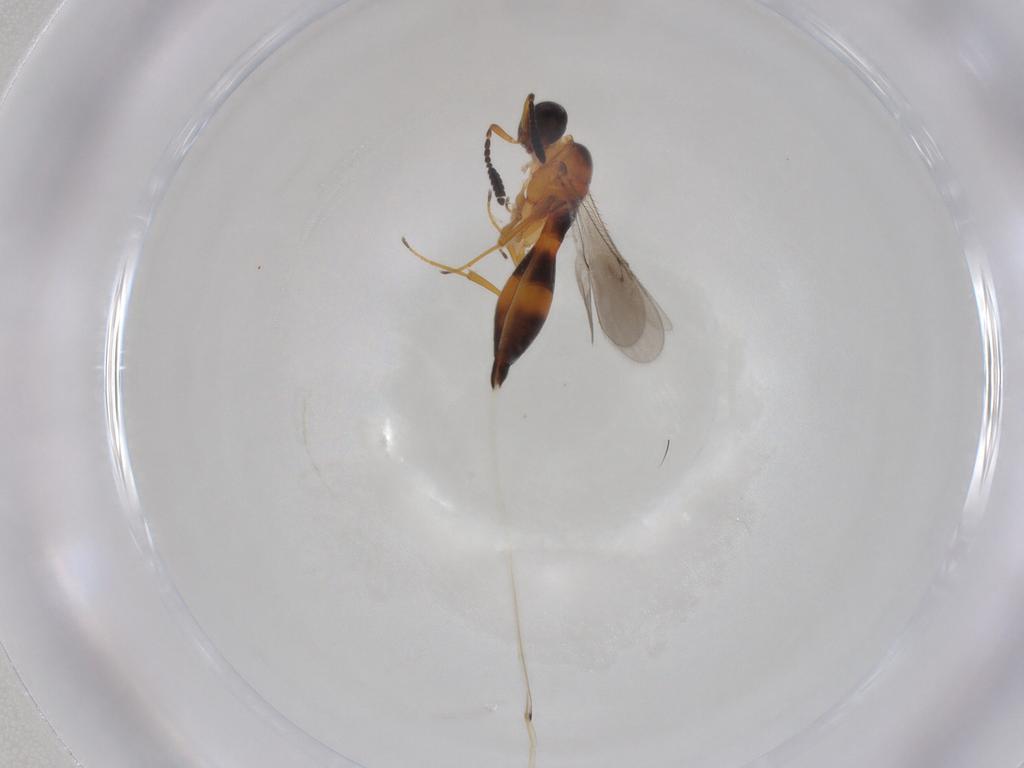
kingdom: Animalia
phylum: Arthropoda
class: Insecta
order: Hymenoptera
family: Scelionidae
